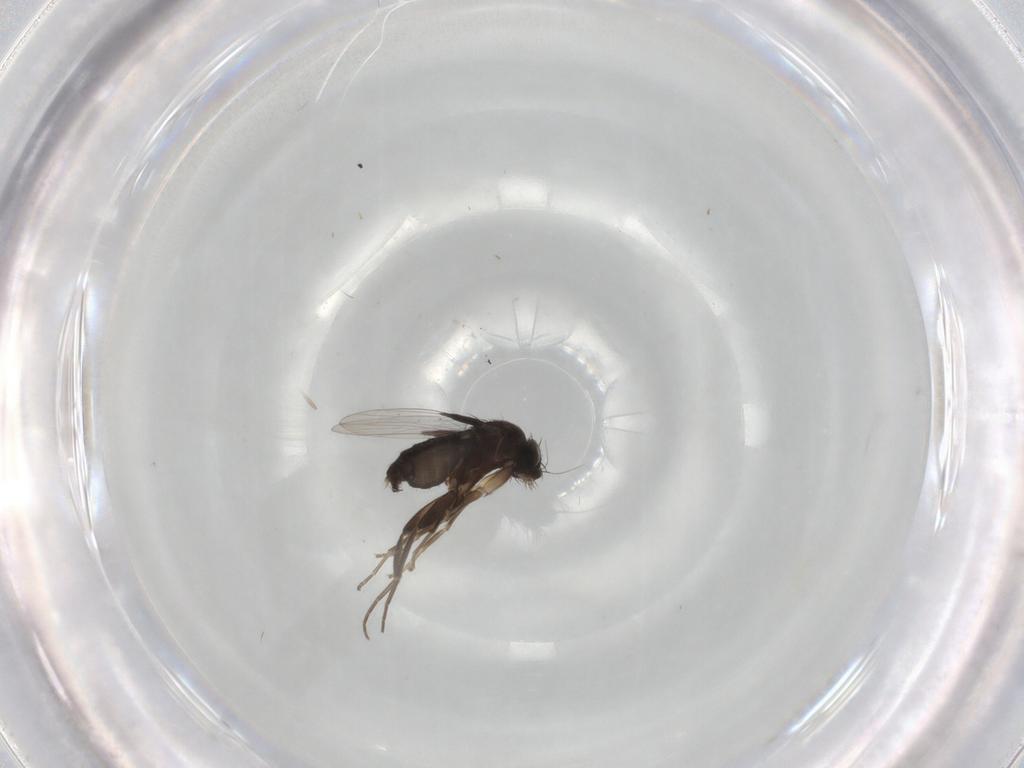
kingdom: Animalia
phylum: Arthropoda
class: Insecta
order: Diptera
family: Phoridae
